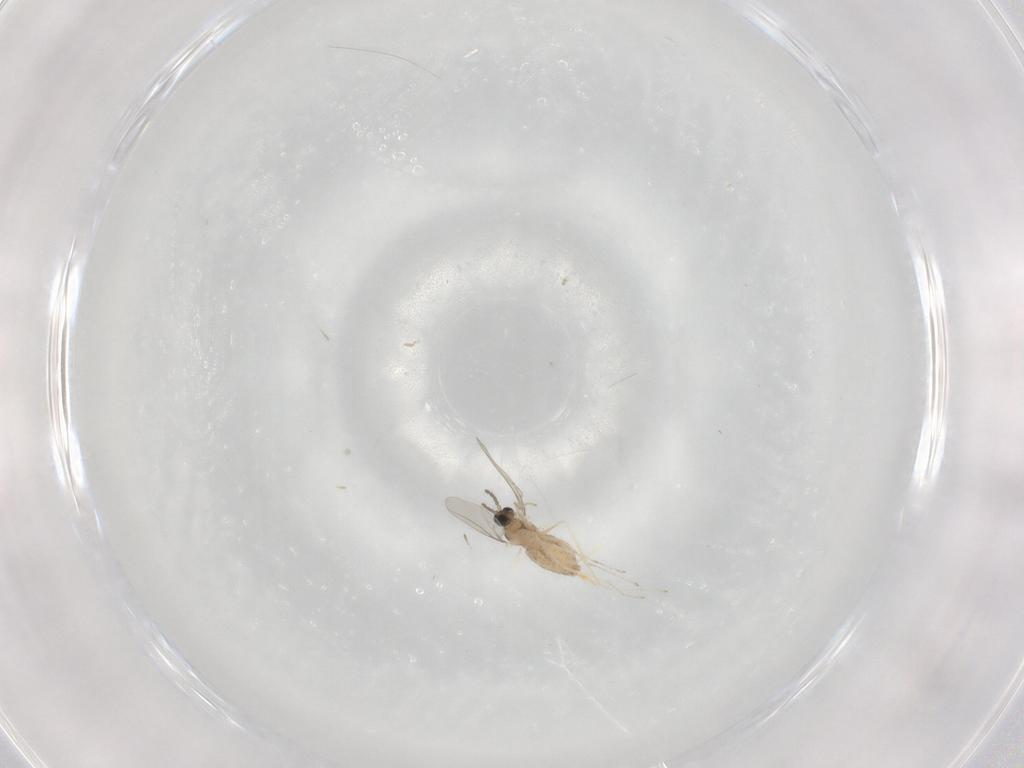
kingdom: Animalia
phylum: Arthropoda
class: Insecta
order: Diptera
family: Cecidomyiidae
